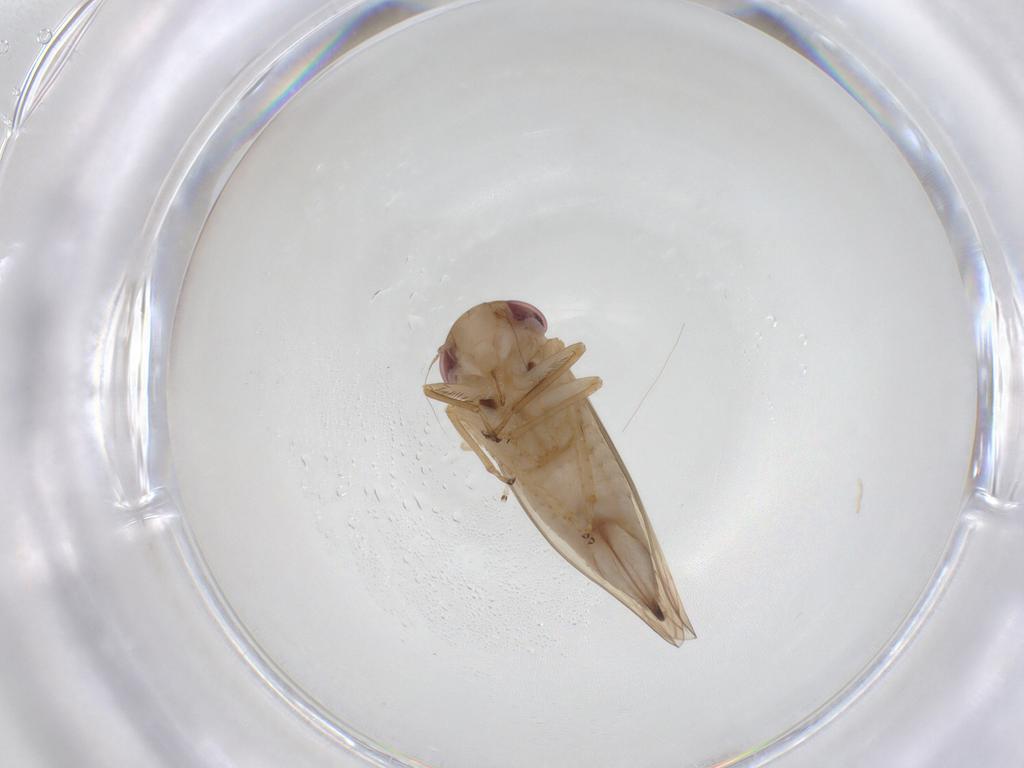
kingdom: Animalia
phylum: Arthropoda
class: Insecta
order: Hemiptera
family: Cicadellidae
